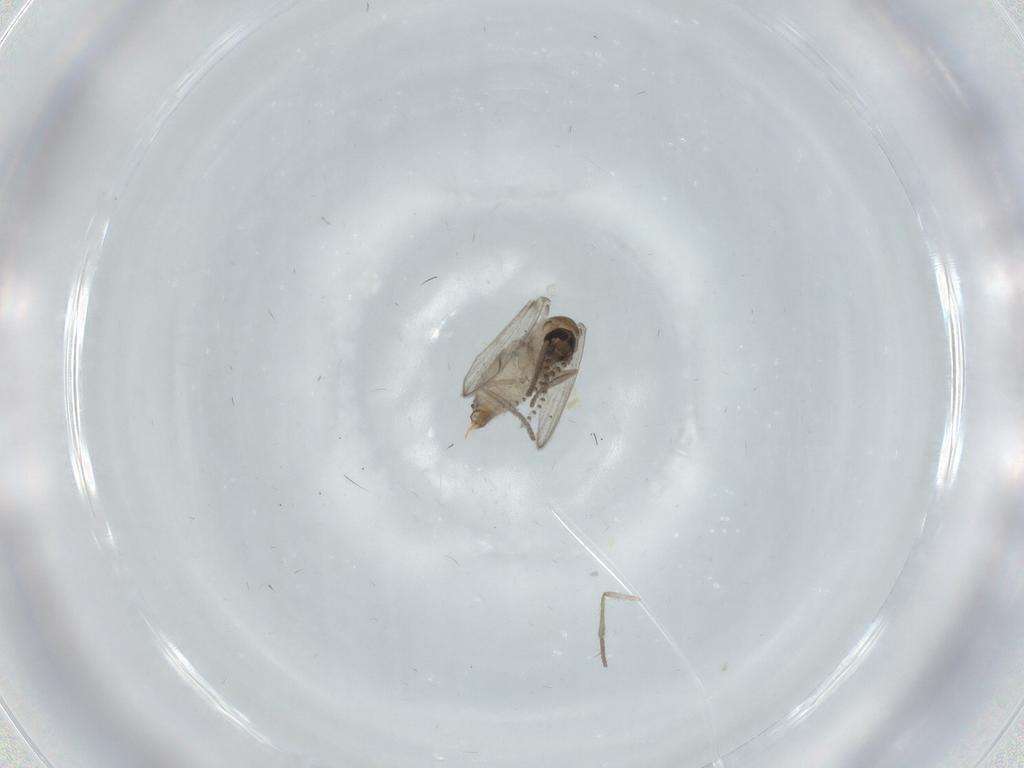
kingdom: Animalia
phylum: Arthropoda
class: Insecta
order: Diptera
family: Psychodidae
